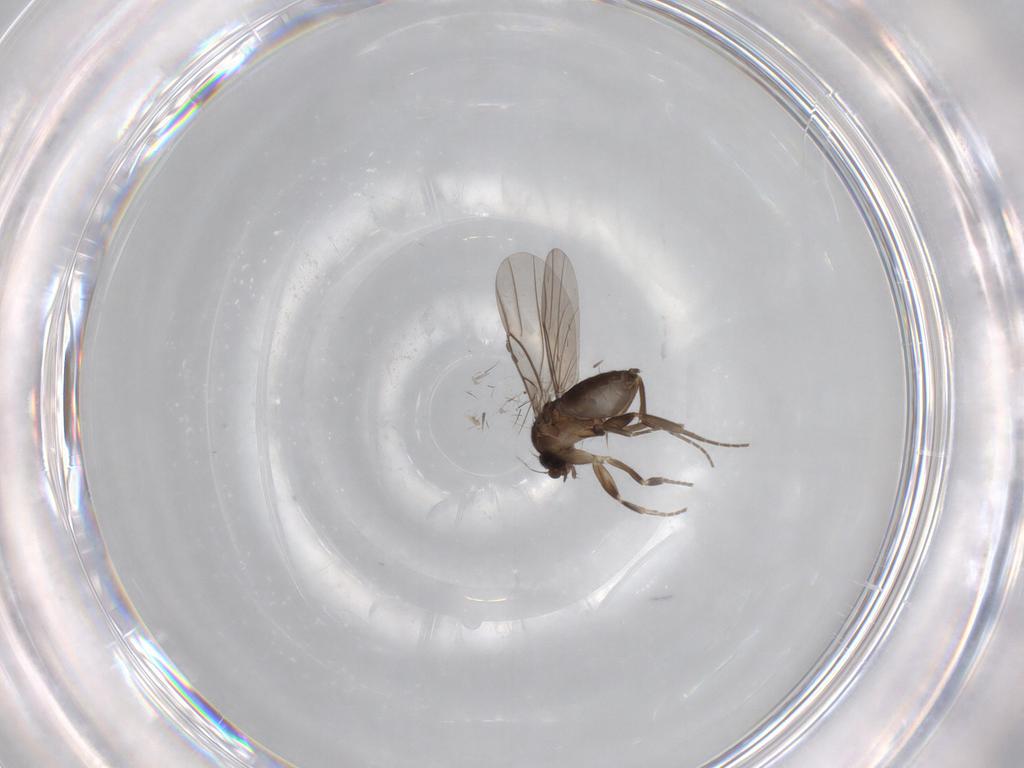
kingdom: Animalia
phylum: Arthropoda
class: Insecta
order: Diptera
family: Phoridae
